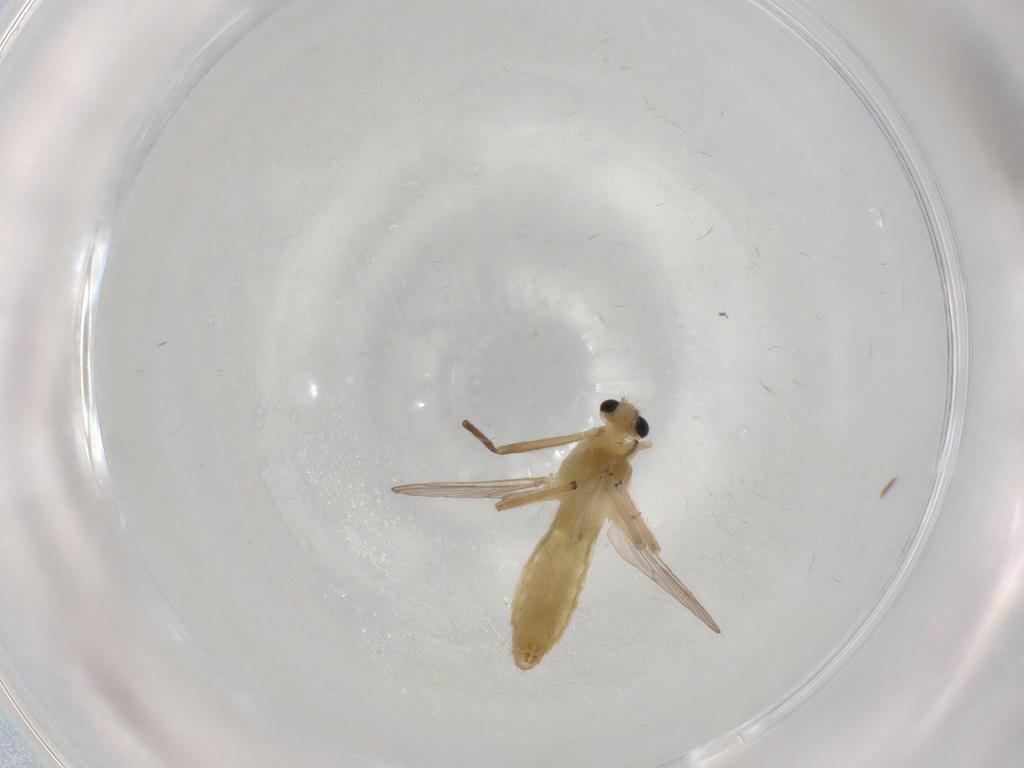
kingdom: Animalia
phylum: Arthropoda
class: Insecta
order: Diptera
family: Chironomidae
